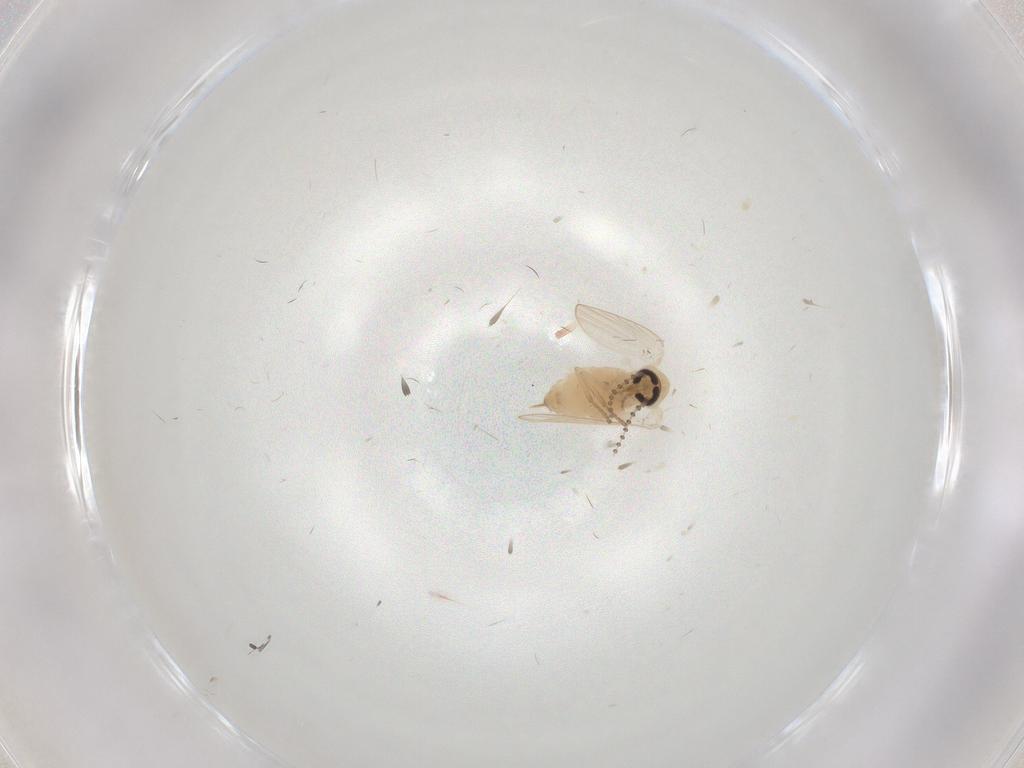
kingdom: Animalia
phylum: Arthropoda
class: Insecta
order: Diptera
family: Psychodidae
